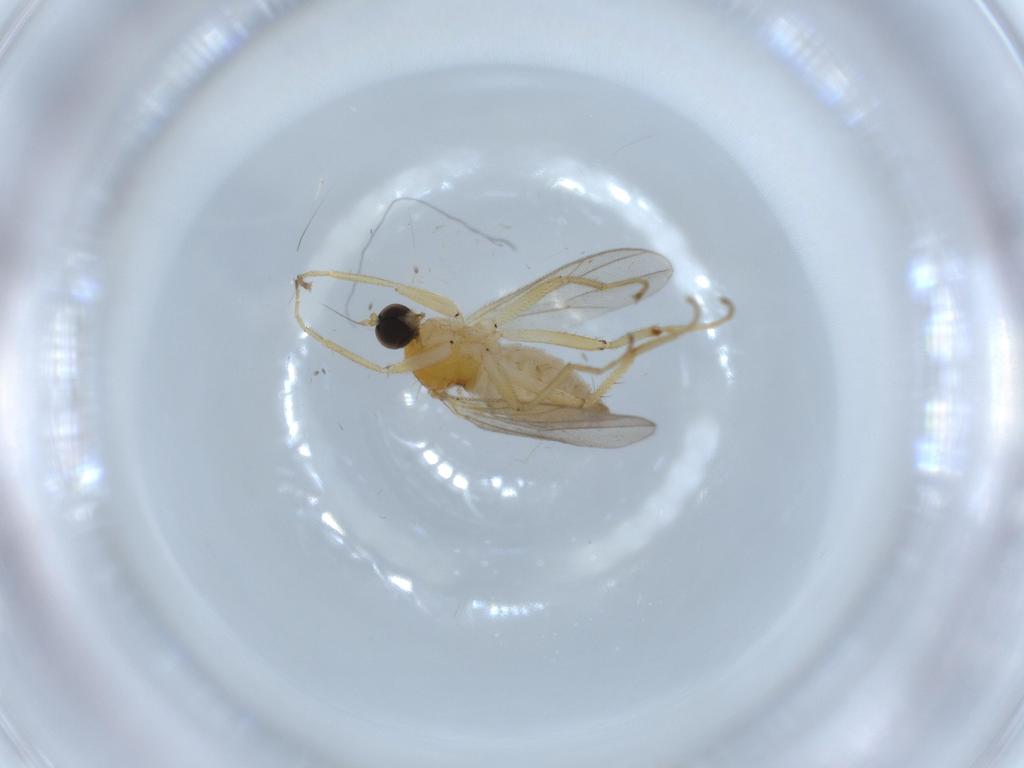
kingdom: Animalia
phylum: Arthropoda
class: Insecta
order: Diptera
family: Hybotidae
